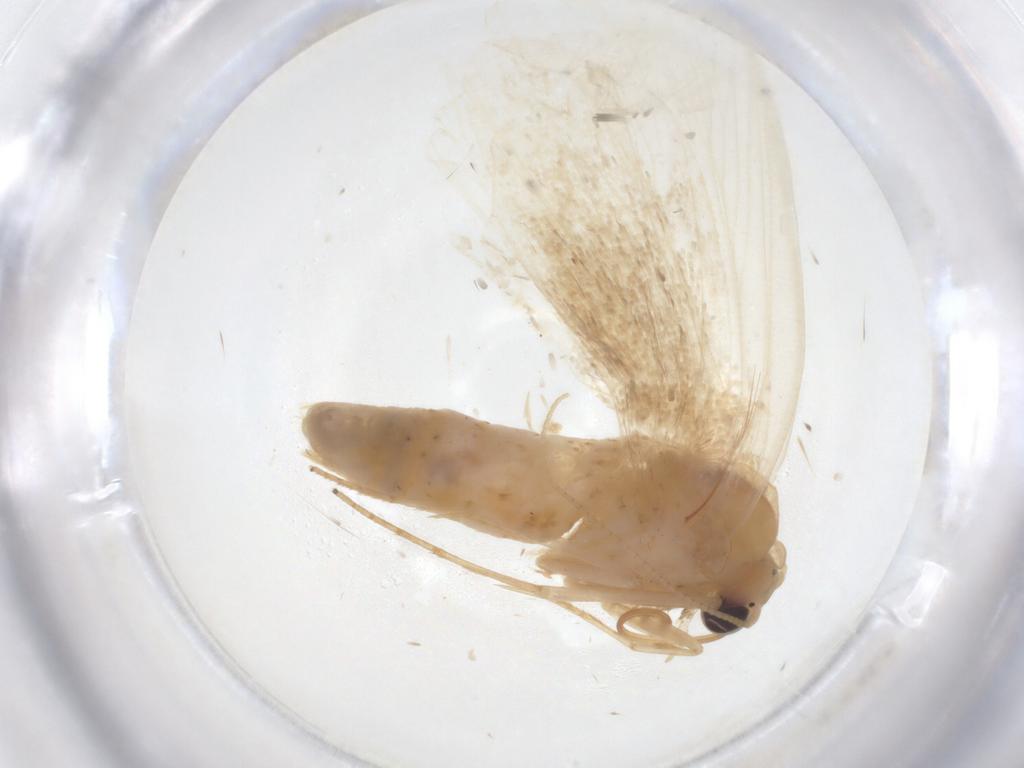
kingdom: Animalia
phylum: Arthropoda
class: Insecta
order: Lepidoptera
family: Erebidae
